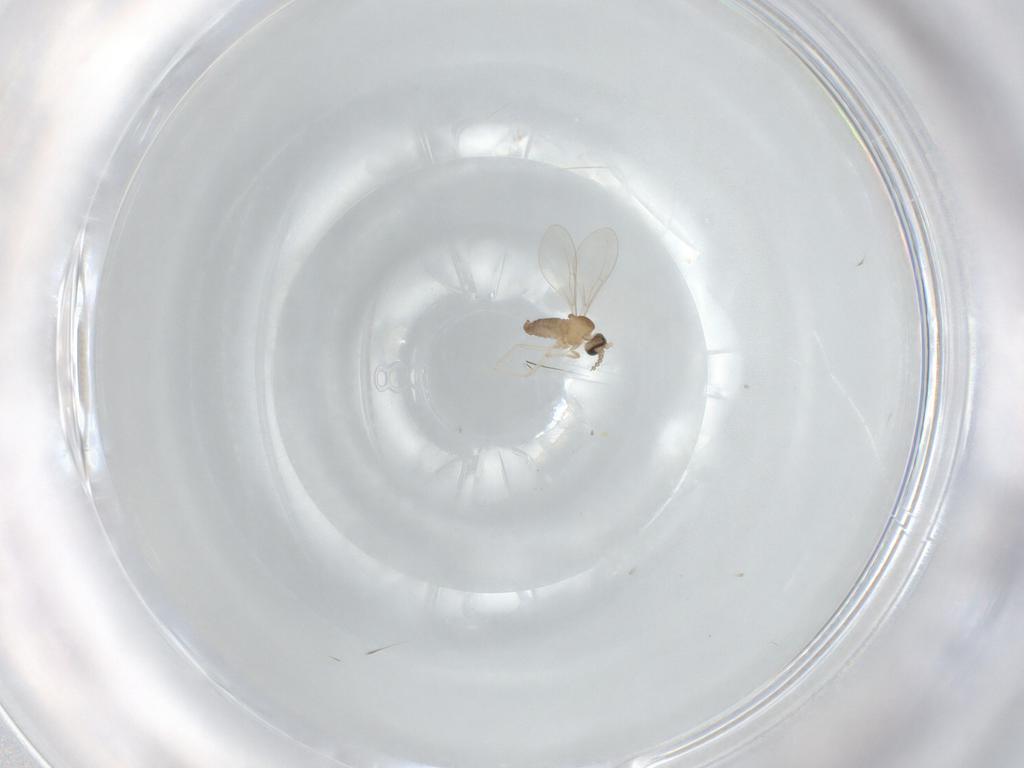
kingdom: Animalia
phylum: Arthropoda
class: Insecta
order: Diptera
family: Cecidomyiidae
